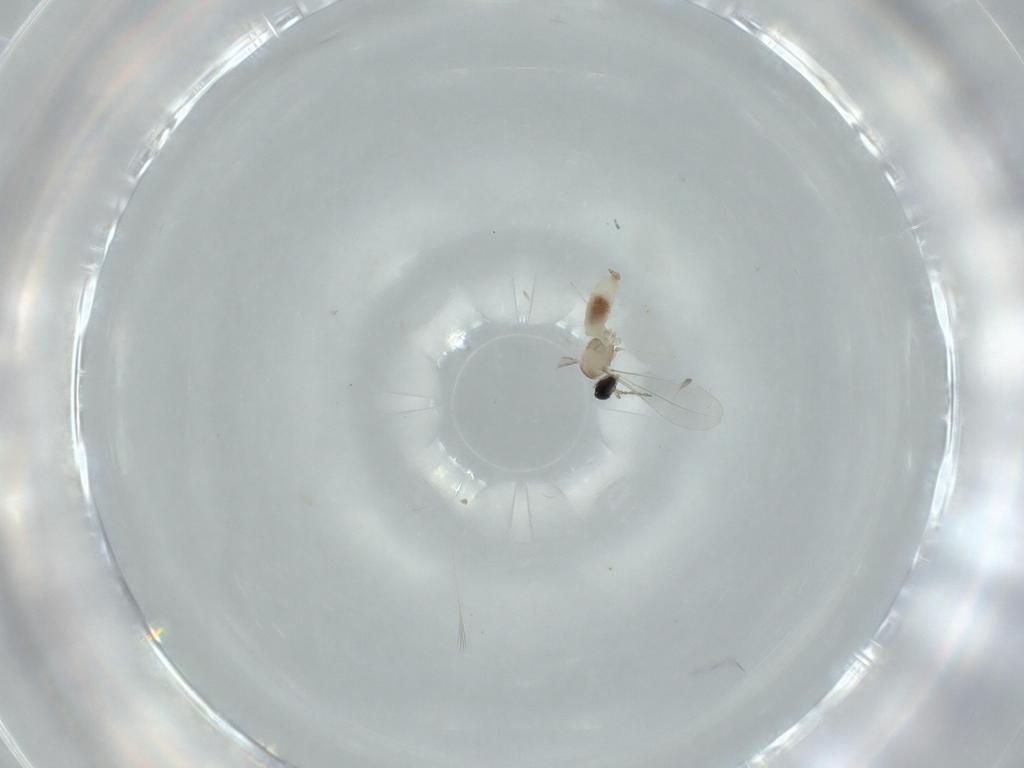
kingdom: Animalia
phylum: Arthropoda
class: Insecta
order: Diptera
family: Cecidomyiidae
